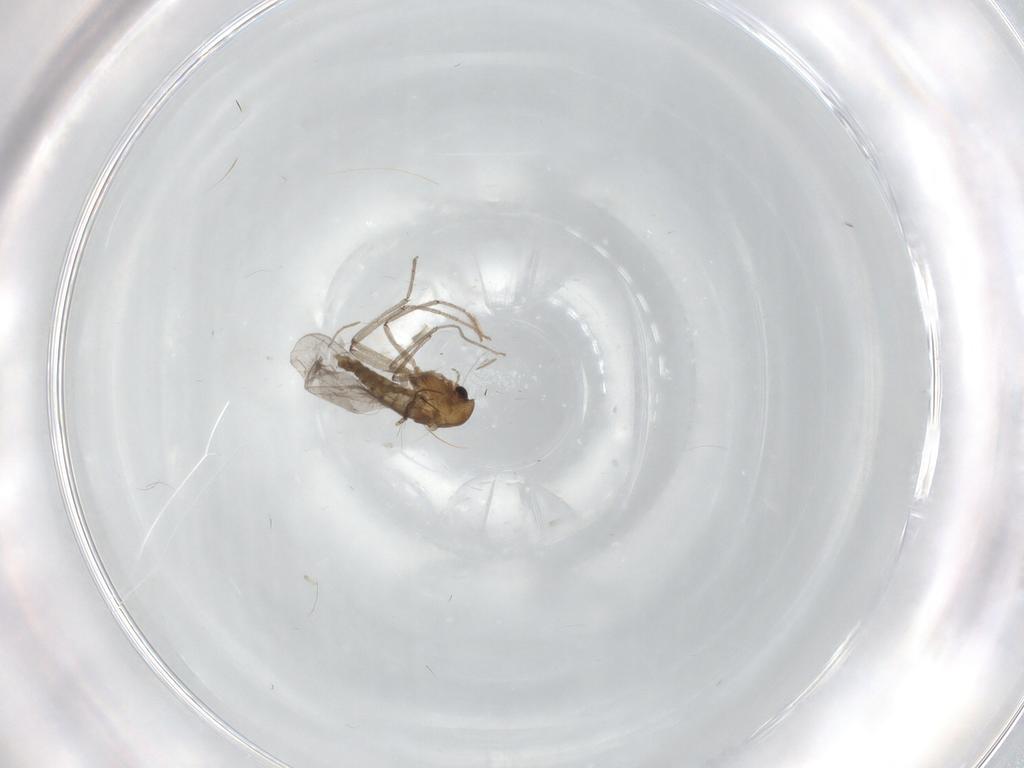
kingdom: Animalia
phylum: Arthropoda
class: Insecta
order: Diptera
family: Chironomidae
